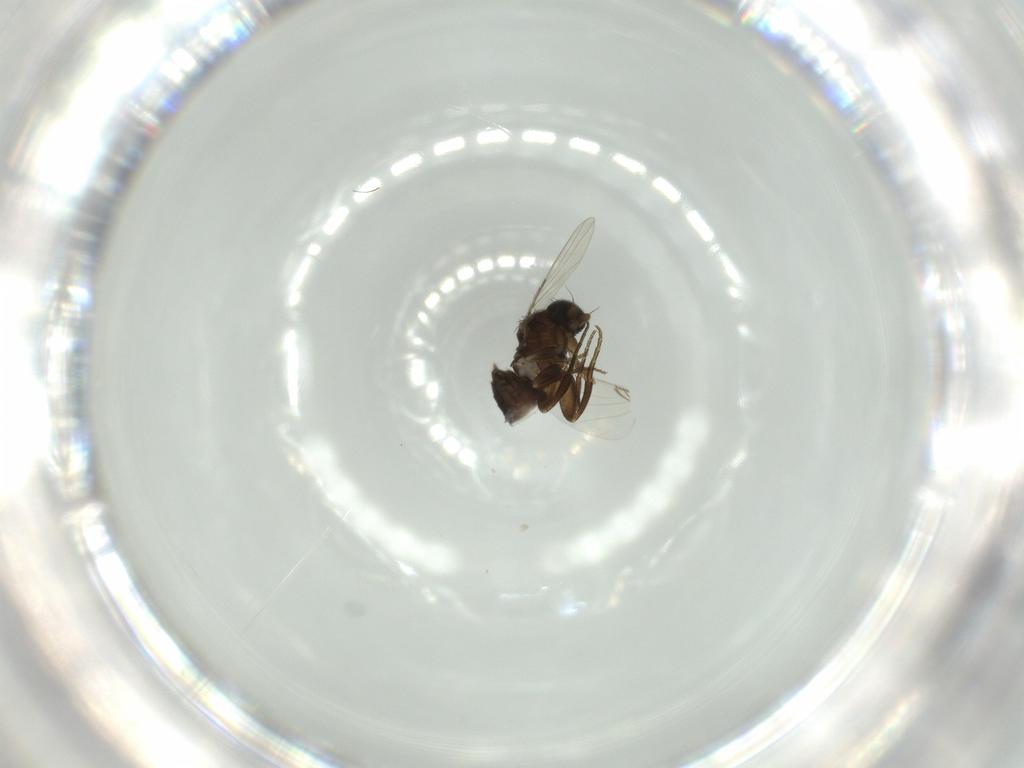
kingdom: Animalia
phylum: Arthropoda
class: Insecta
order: Diptera
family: Phoridae
